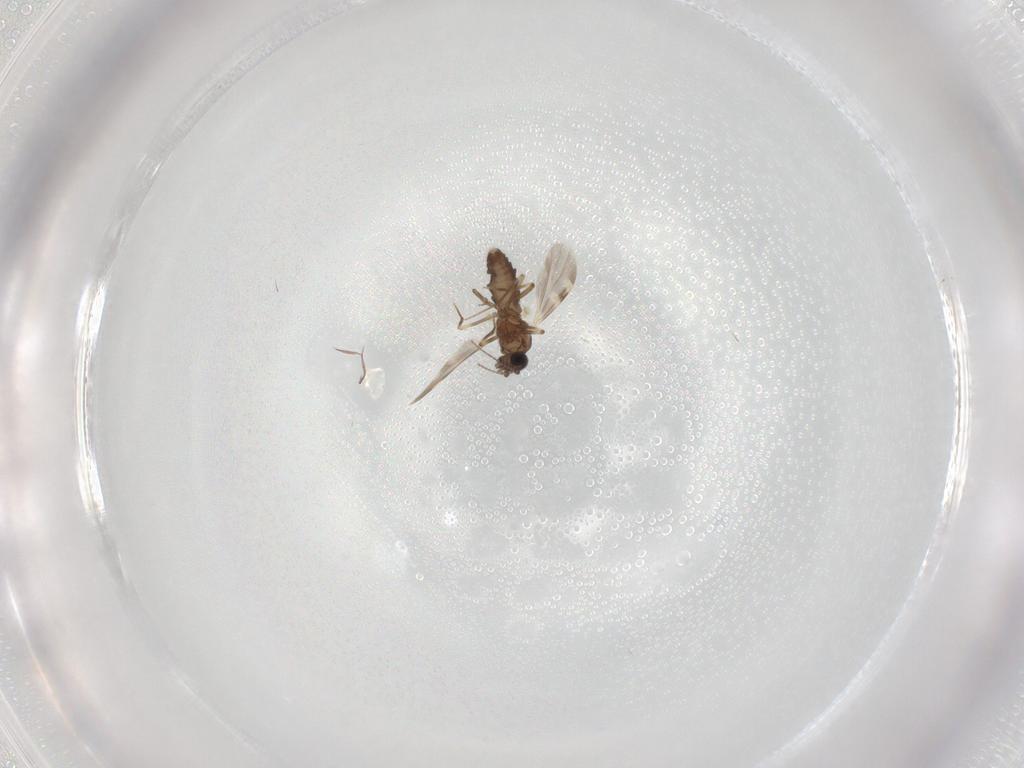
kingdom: Animalia
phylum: Arthropoda
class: Insecta
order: Diptera
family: Ceratopogonidae
